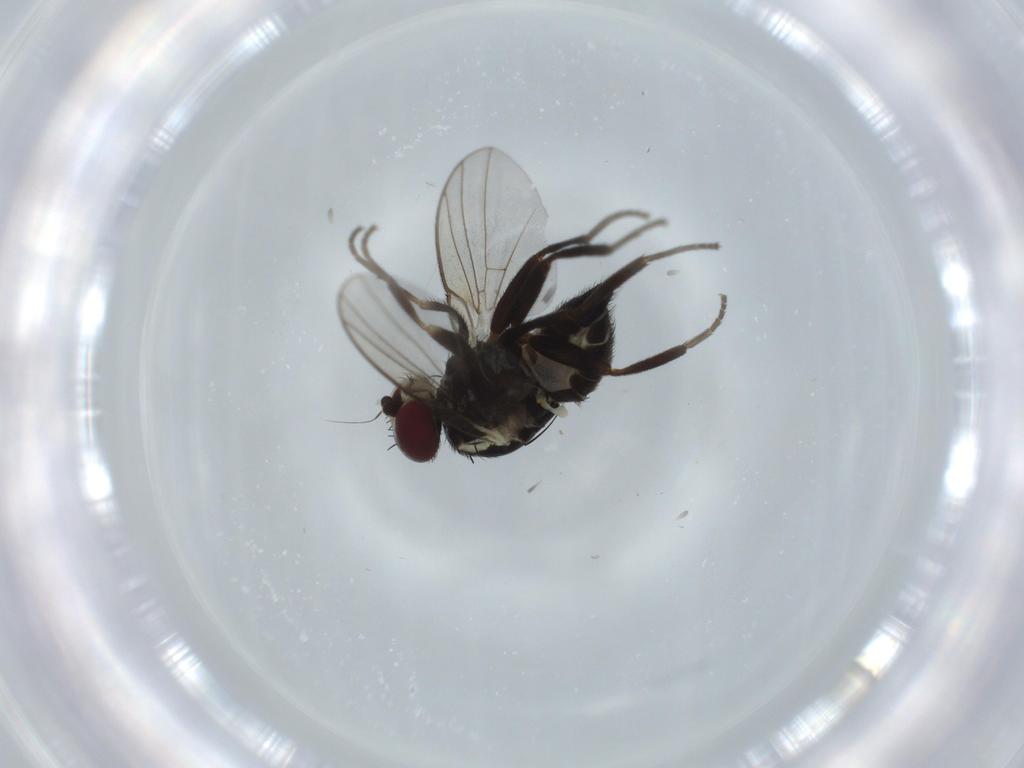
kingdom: Animalia
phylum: Arthropoda
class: Insecta
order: Diptera
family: Agromyzidae
